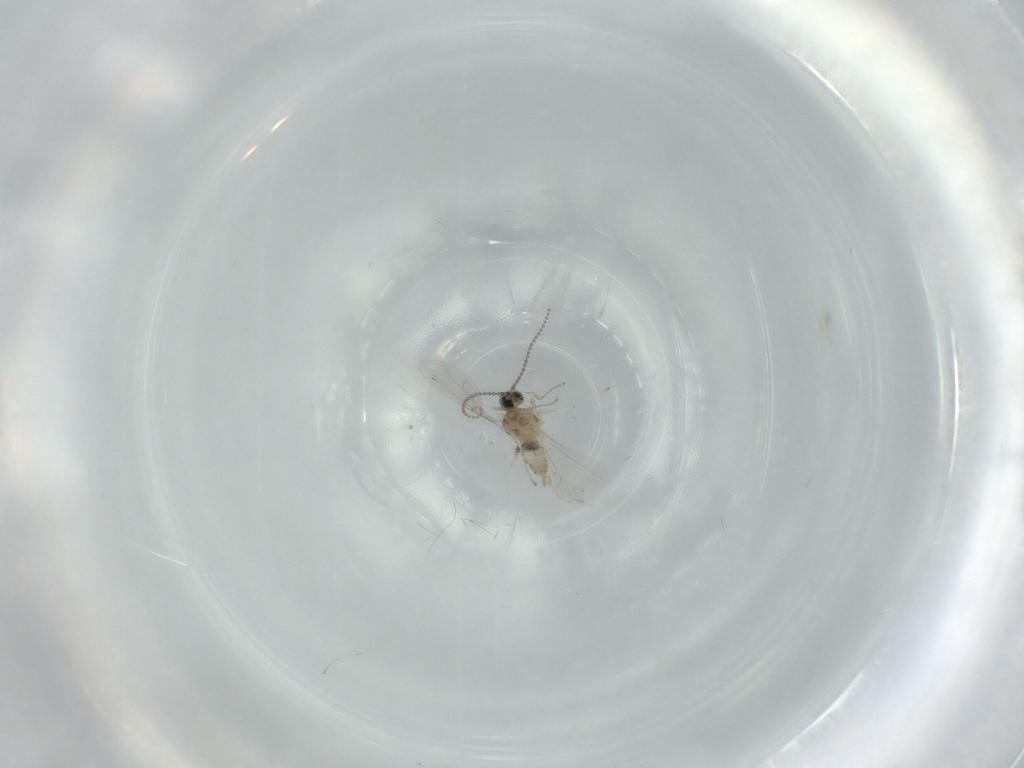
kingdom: Animalia
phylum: Arthropoda
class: Insecta
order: Diptera
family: Cecidomyiidae
